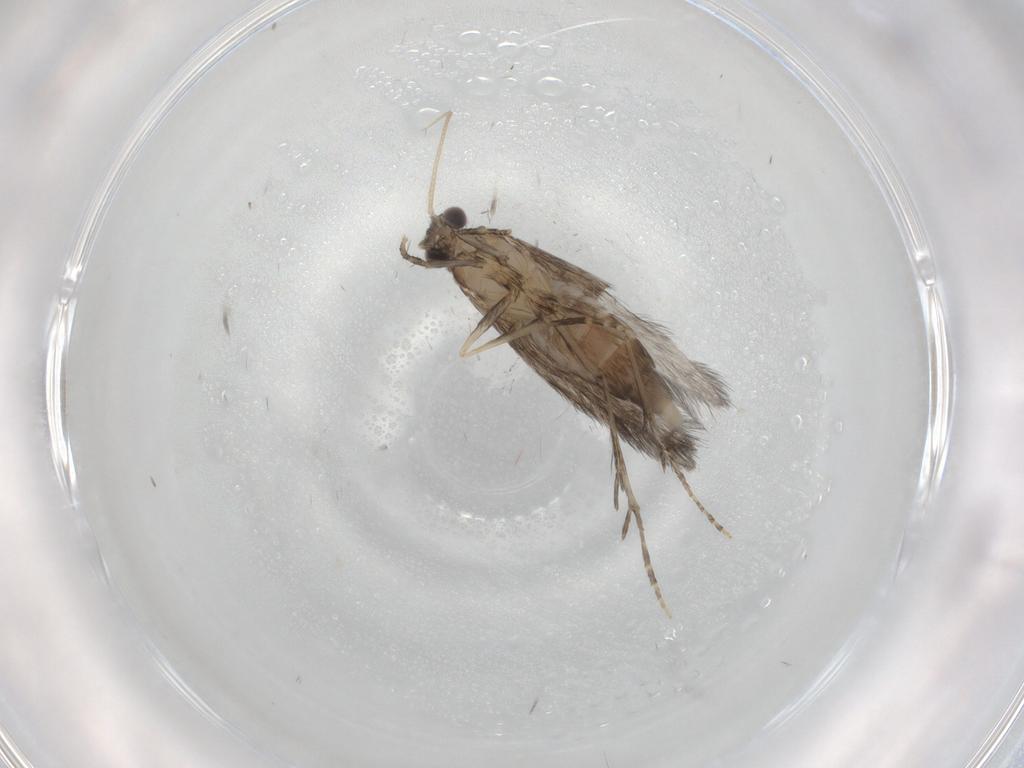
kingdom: Animalia
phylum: Arthropoda
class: Insecta
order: Trichoptera
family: Hydroptilidae
